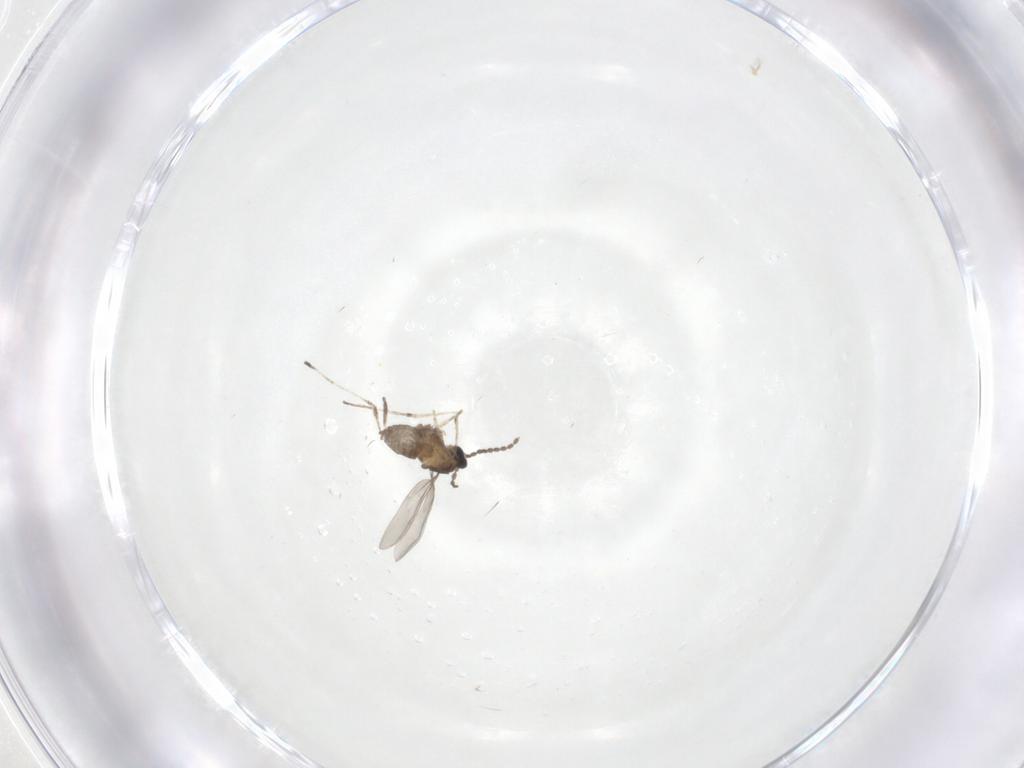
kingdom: Animalia
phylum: Arthropoda
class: Insecta
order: Diptera
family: Cecidomyiidae
